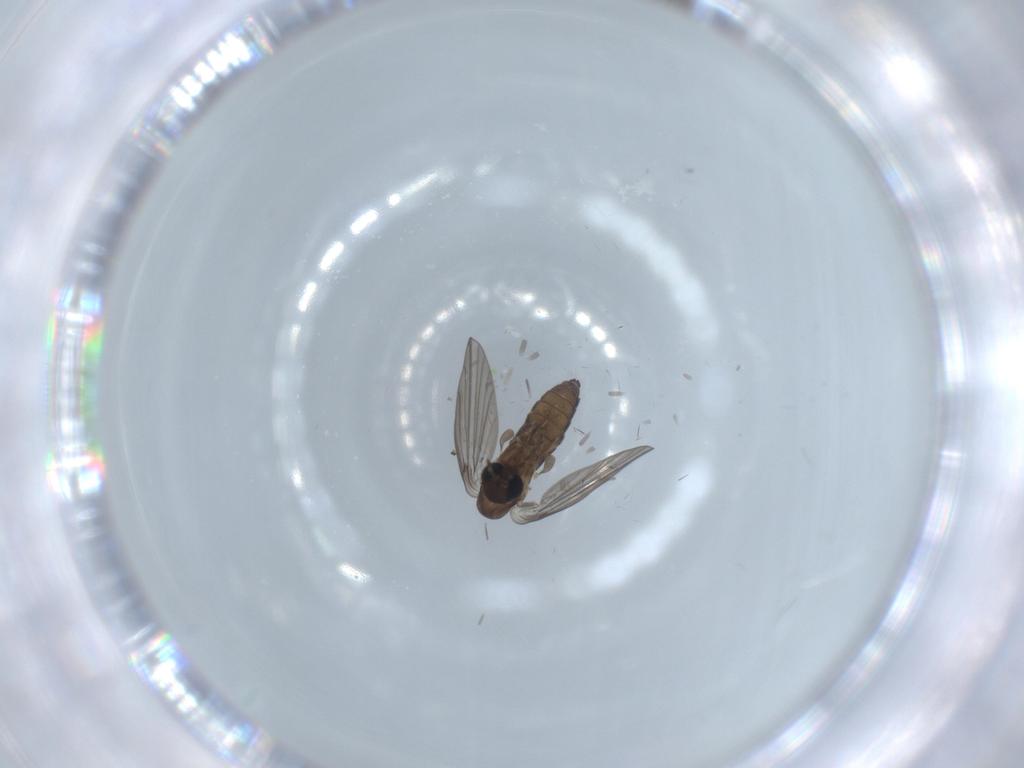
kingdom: Animalia
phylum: Arthropoda
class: Insecta
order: Diptera
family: Psychodidae
